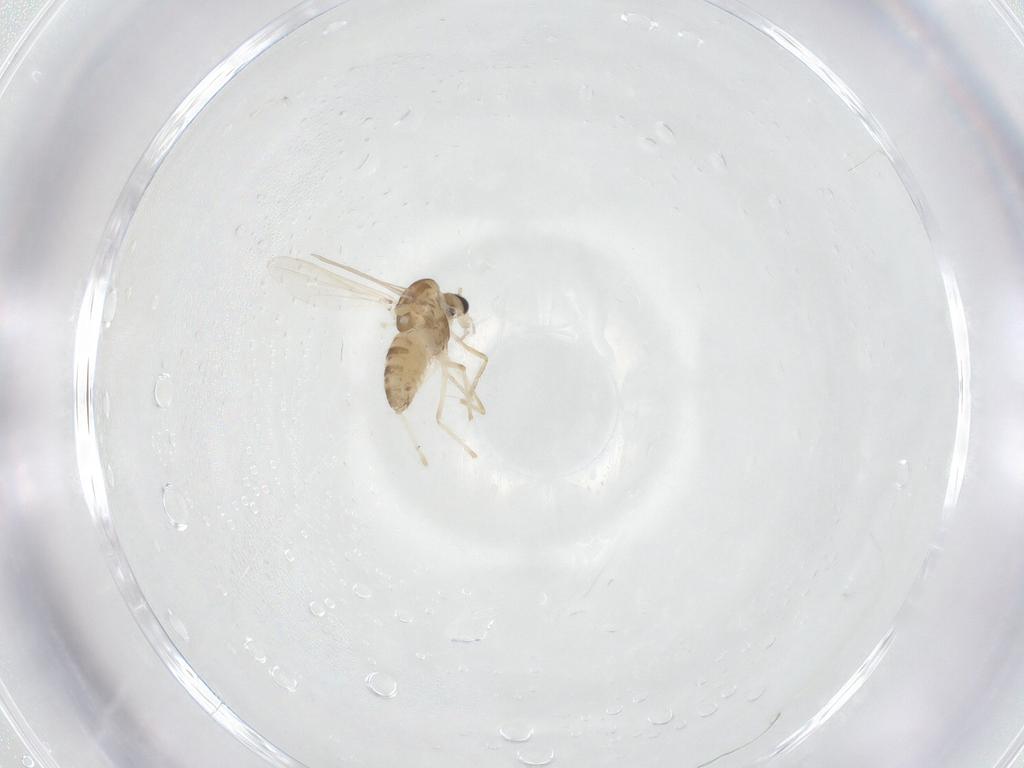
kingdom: Animalia
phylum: Arthropoda
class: Insecta
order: Diptera
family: Chironomidae
